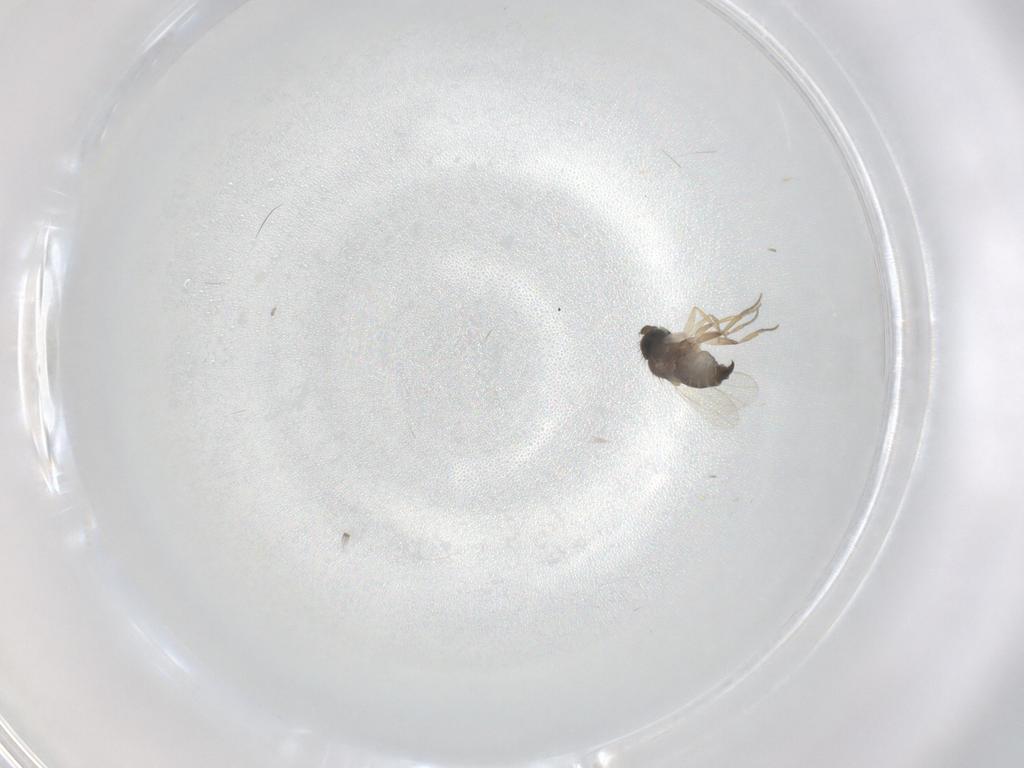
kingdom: Animalia
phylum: Arthropoda
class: Insecta
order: Diptera
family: Phoridae
